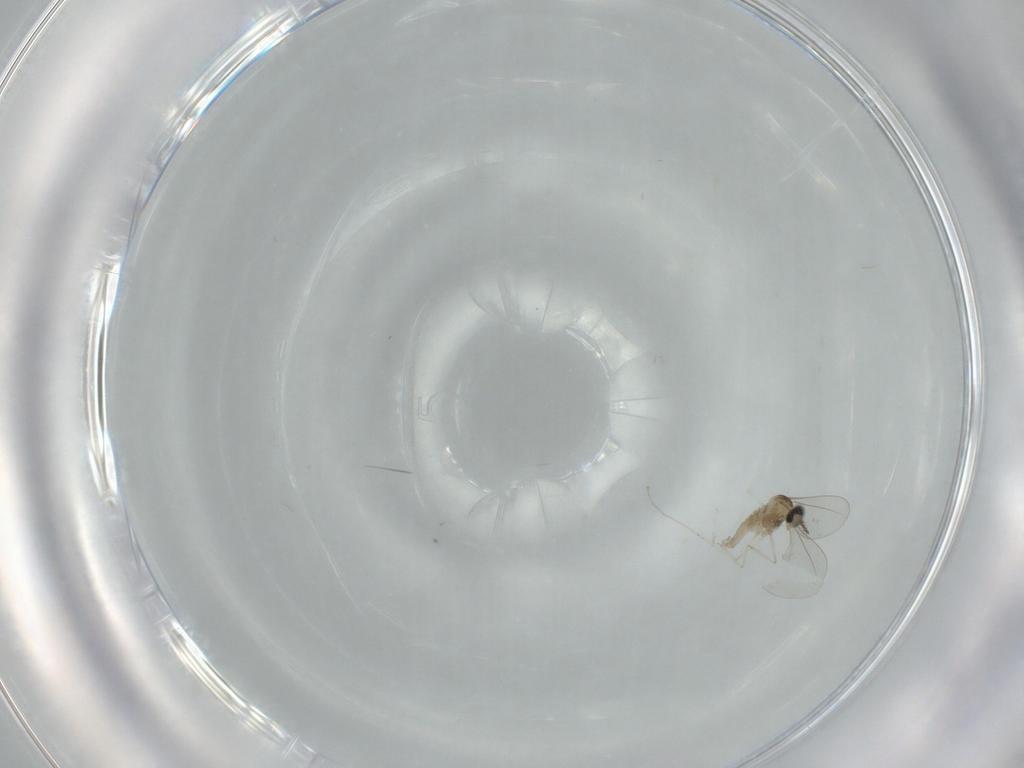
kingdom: Animalia
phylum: Arthropoda
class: Insecta
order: Diptera
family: Cecidomyiidae
